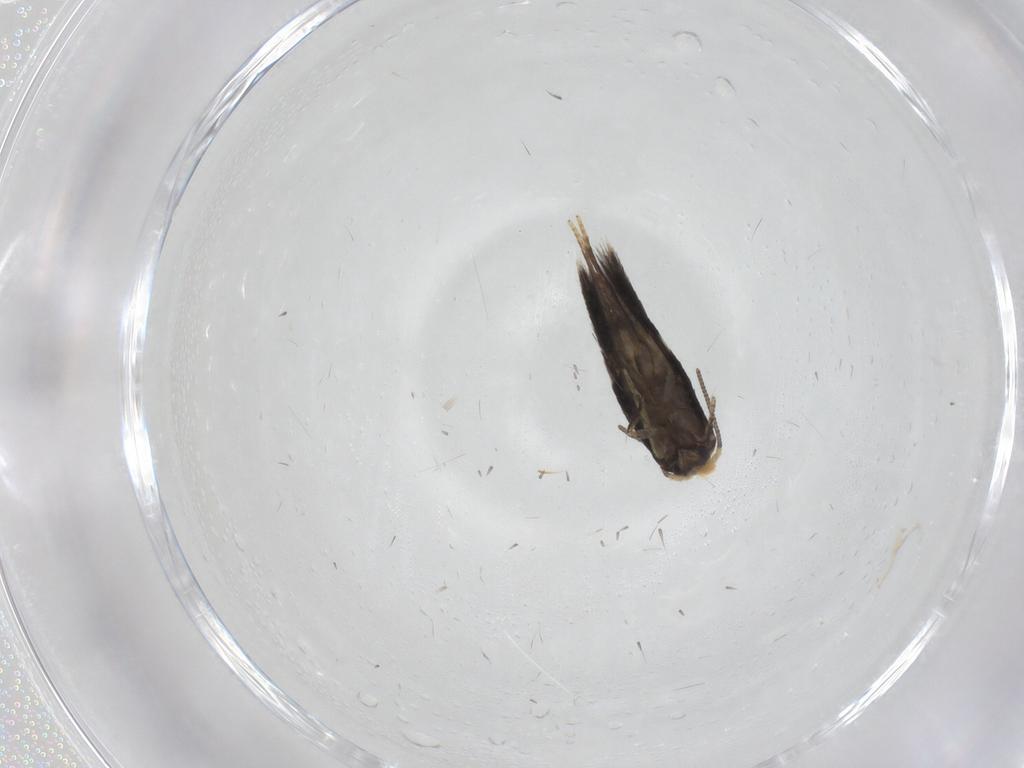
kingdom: Animalia
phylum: Arthropoda
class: Insecta
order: Lepidoptera
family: Nepticulidae
